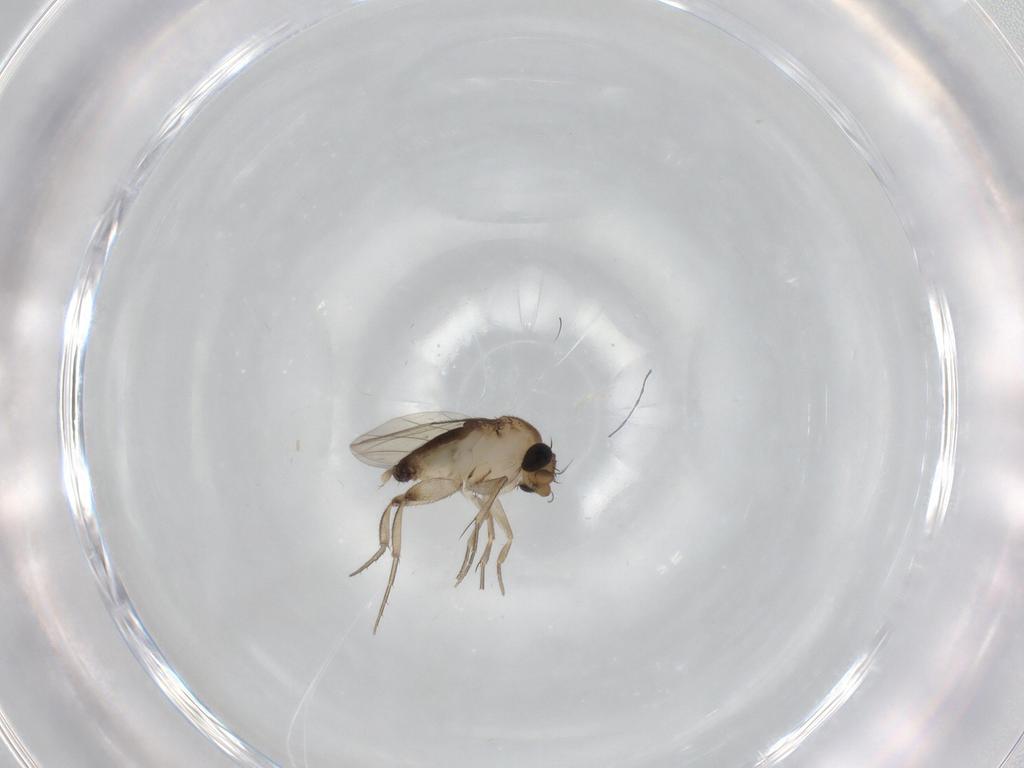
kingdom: Animalia
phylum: Arthropoda
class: Insecta
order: Diptera
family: Phoridae
